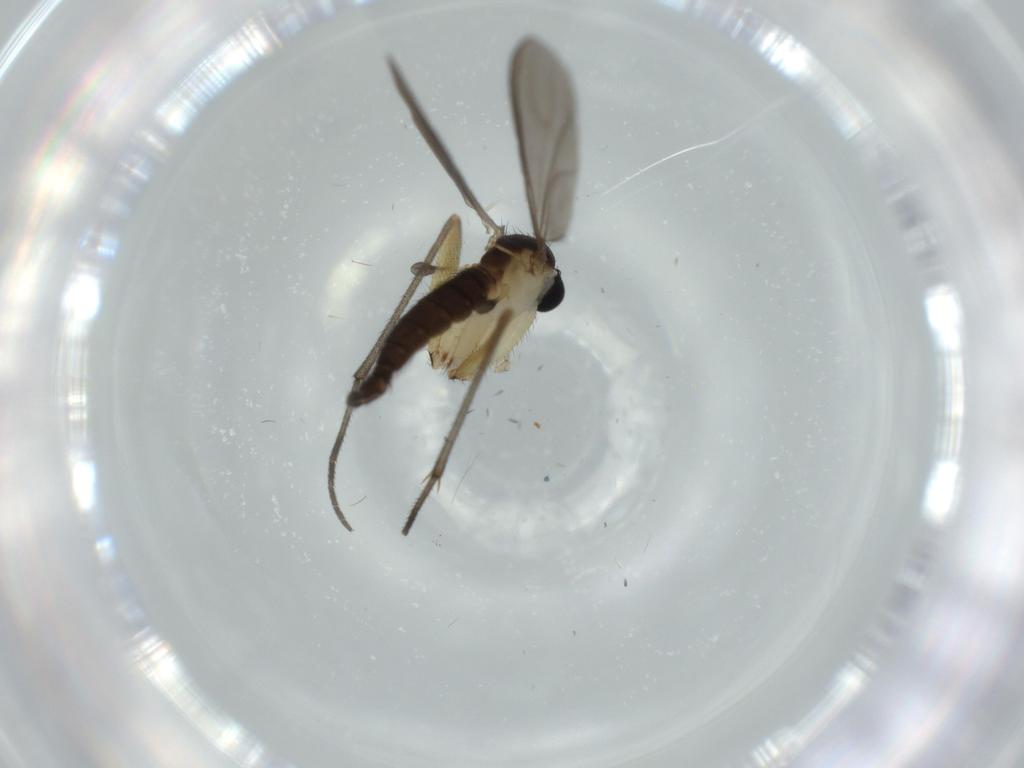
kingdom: Animalia
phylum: Arthropoda
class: Insecta
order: Diptera
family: Sciaridae
